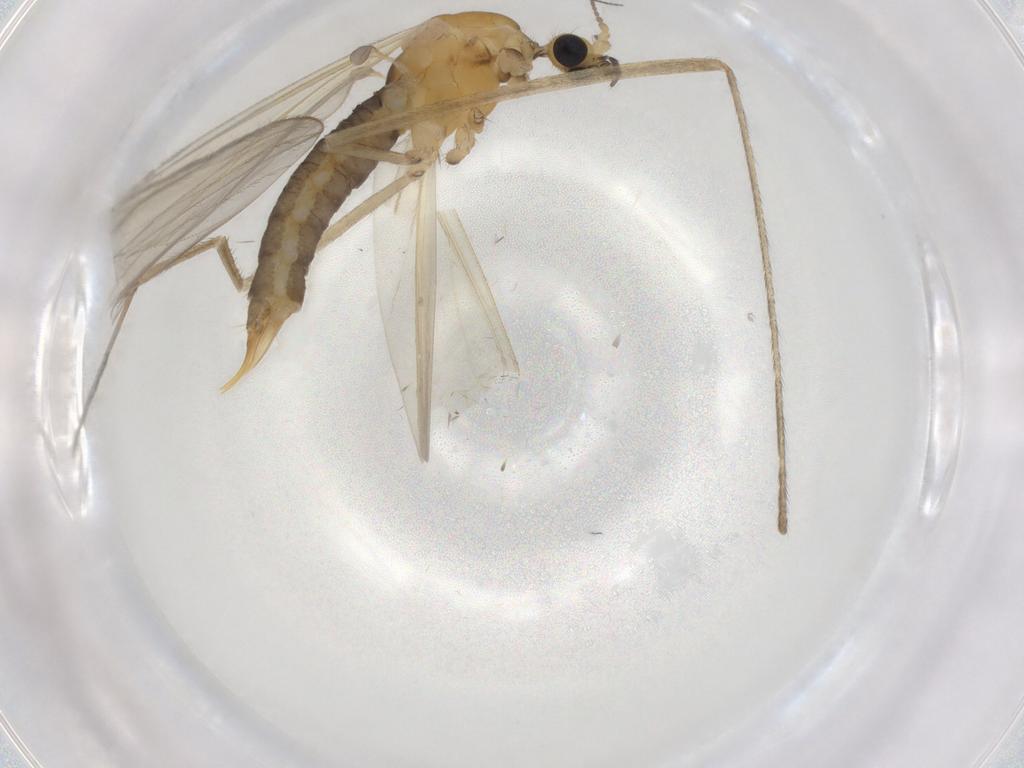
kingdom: Animalia
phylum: Arthropoda
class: Insecta
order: Diptera
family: Limoniidae
